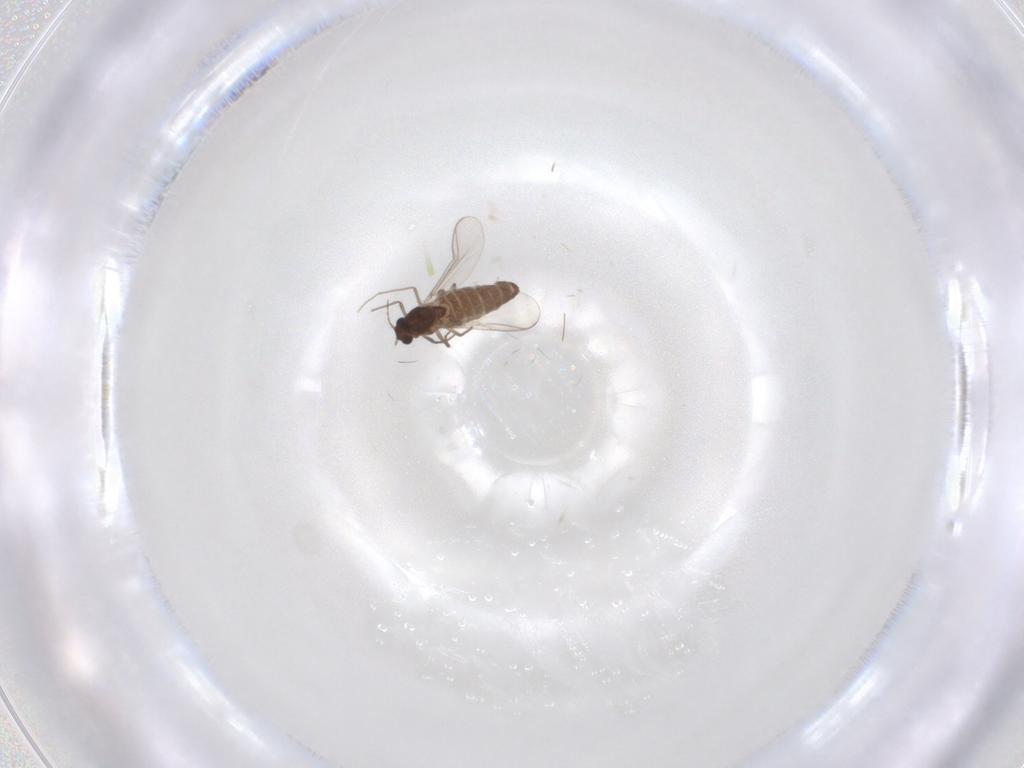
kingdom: Animalia
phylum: Arthropoda
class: Insecta
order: Diptera
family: Chironomidae
